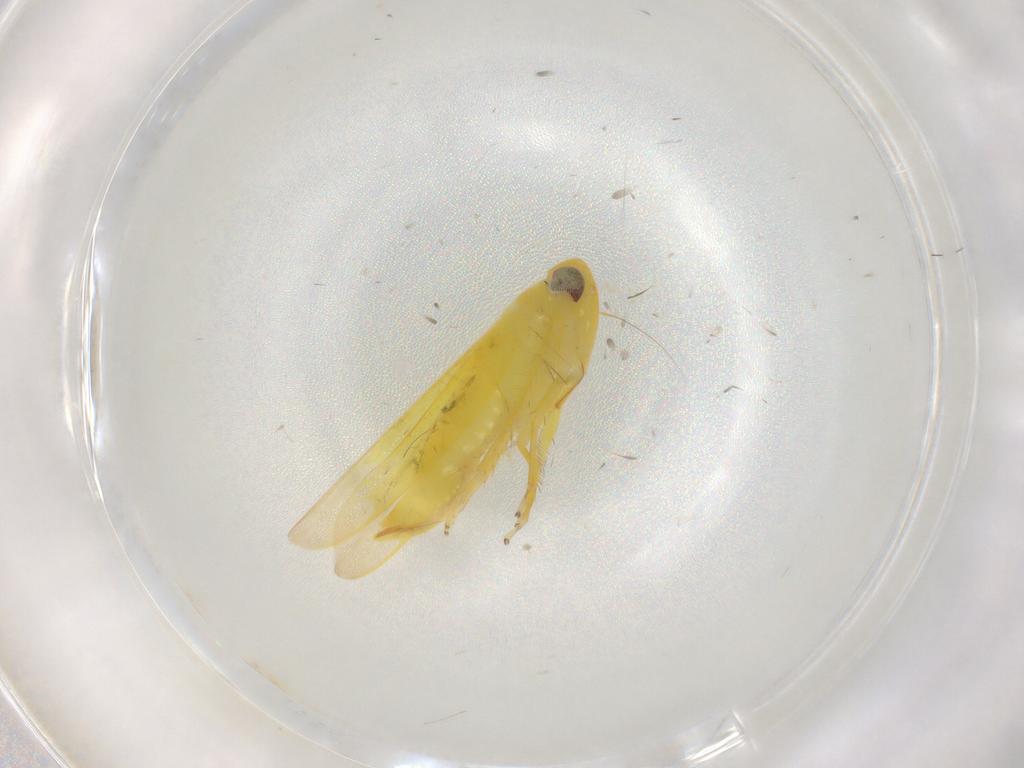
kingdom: Animalia
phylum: Arthropoda
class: Insecta
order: Hemiptera
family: Cicadellidae
